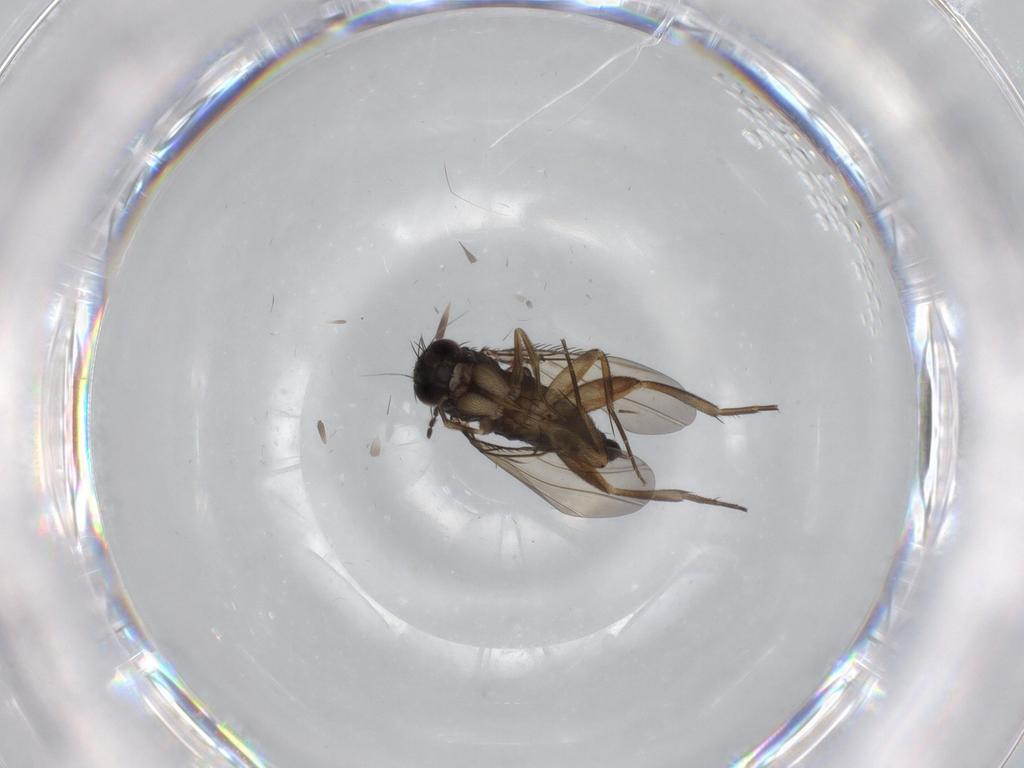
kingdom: Animalia
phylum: Arthropoda
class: Insecta
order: Diptera
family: Phoridae
